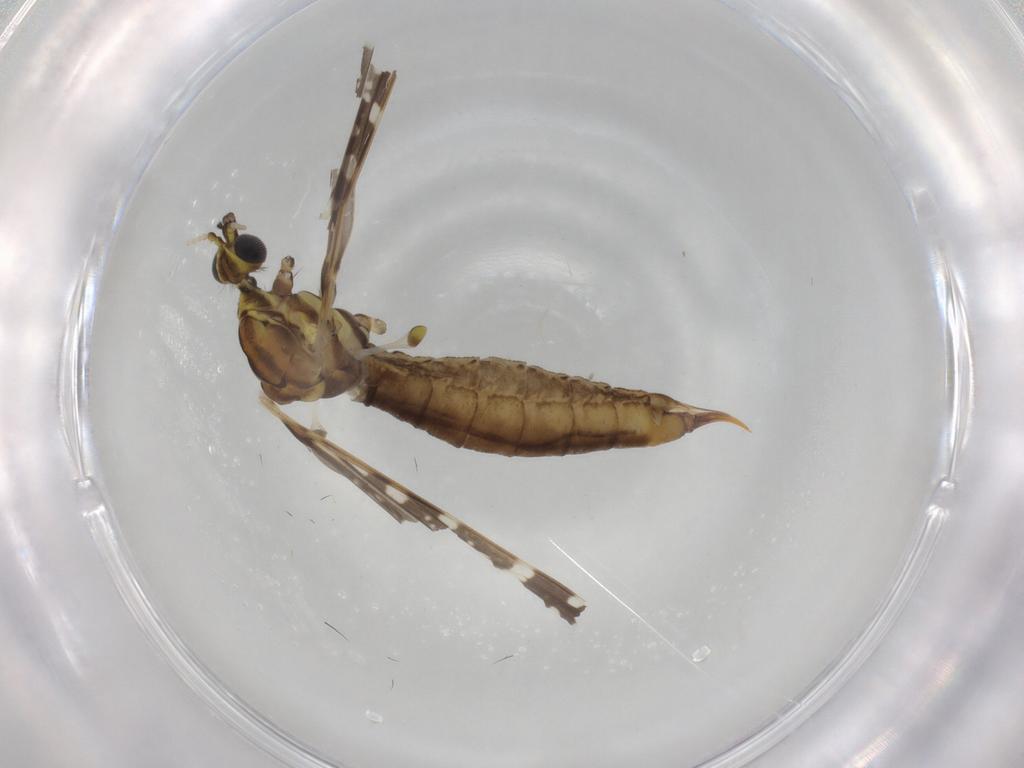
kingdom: Animalia
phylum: Arthropoda
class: Insecta
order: Diptera
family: Limoniidae
